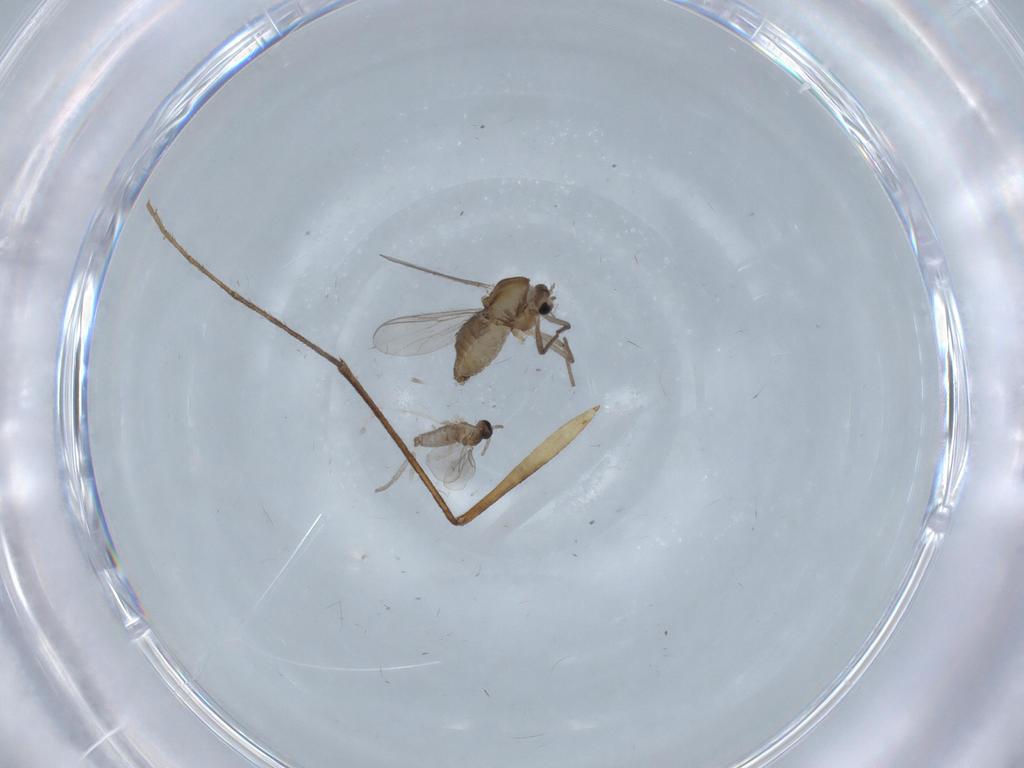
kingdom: Animalia
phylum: Arthropoda
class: Insecta
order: Diptera
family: Chironomidae
